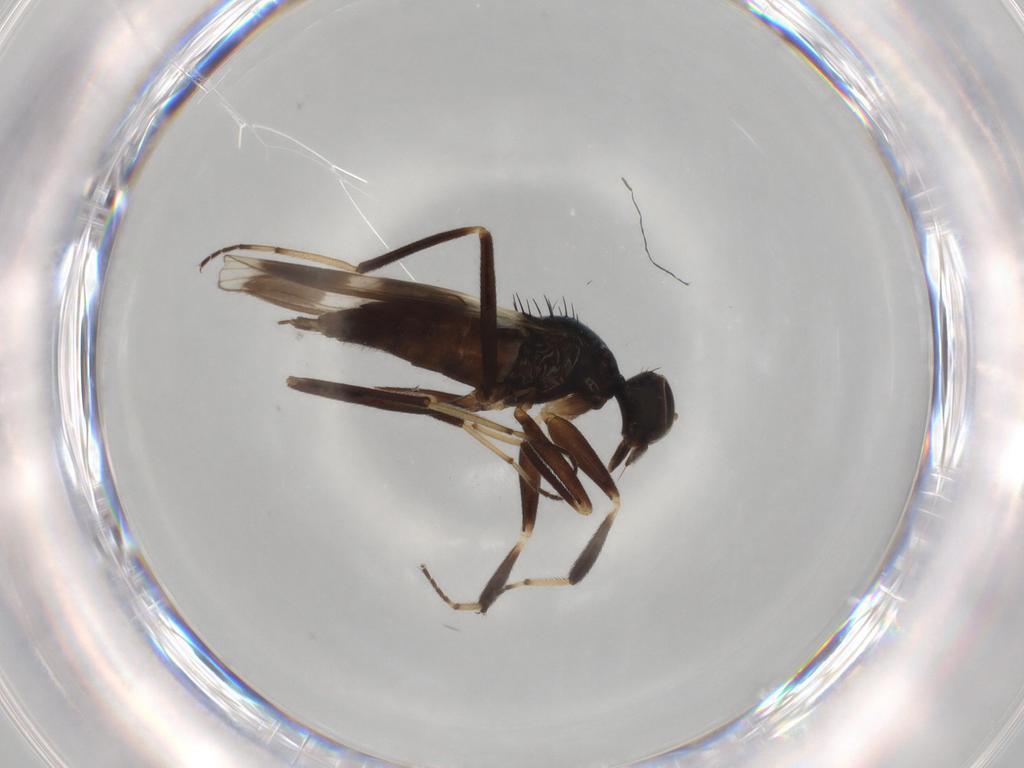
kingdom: Animalia
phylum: Arthropoda
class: Insecta
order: Diptera
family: Hybotidae
